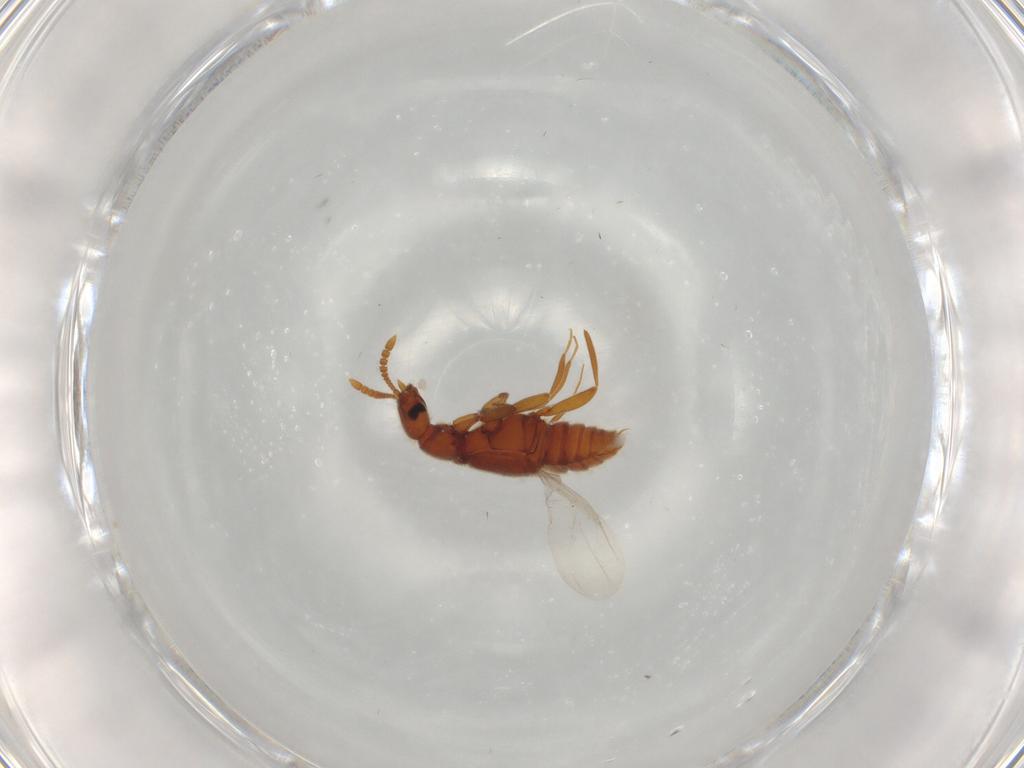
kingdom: Animalia
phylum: Arthropoda
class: Insecta
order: Coleoptera
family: Staphylinidae
